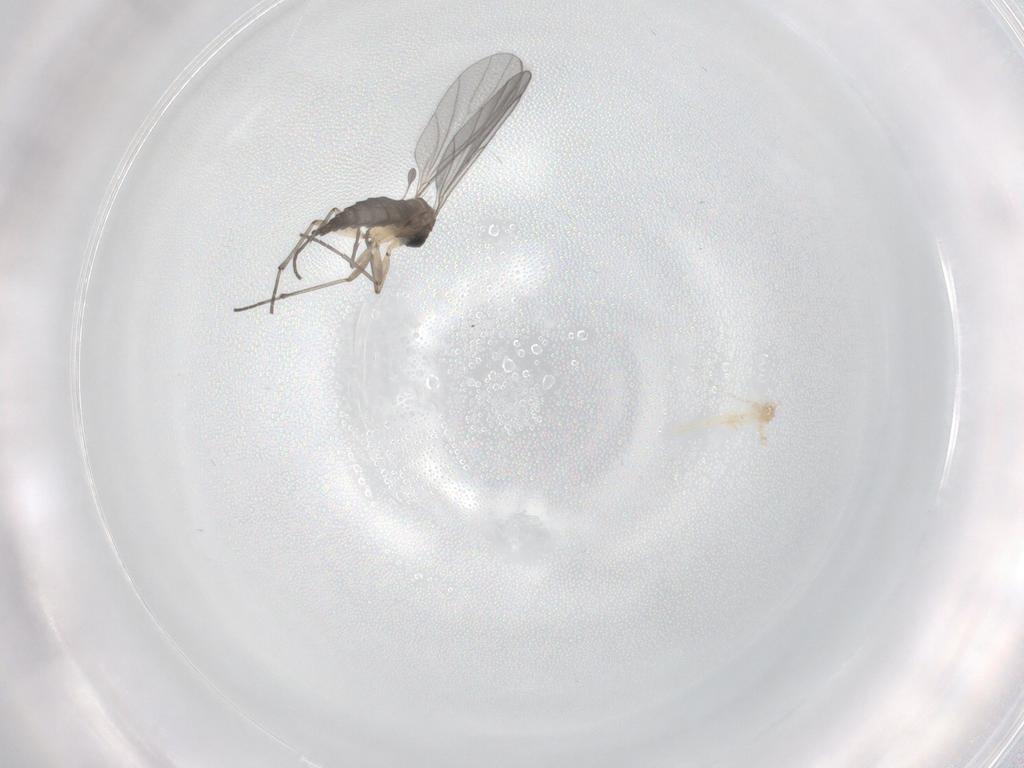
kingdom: Animalia
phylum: Arthropoda
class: Insecta
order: Diptera
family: Sciaridae
